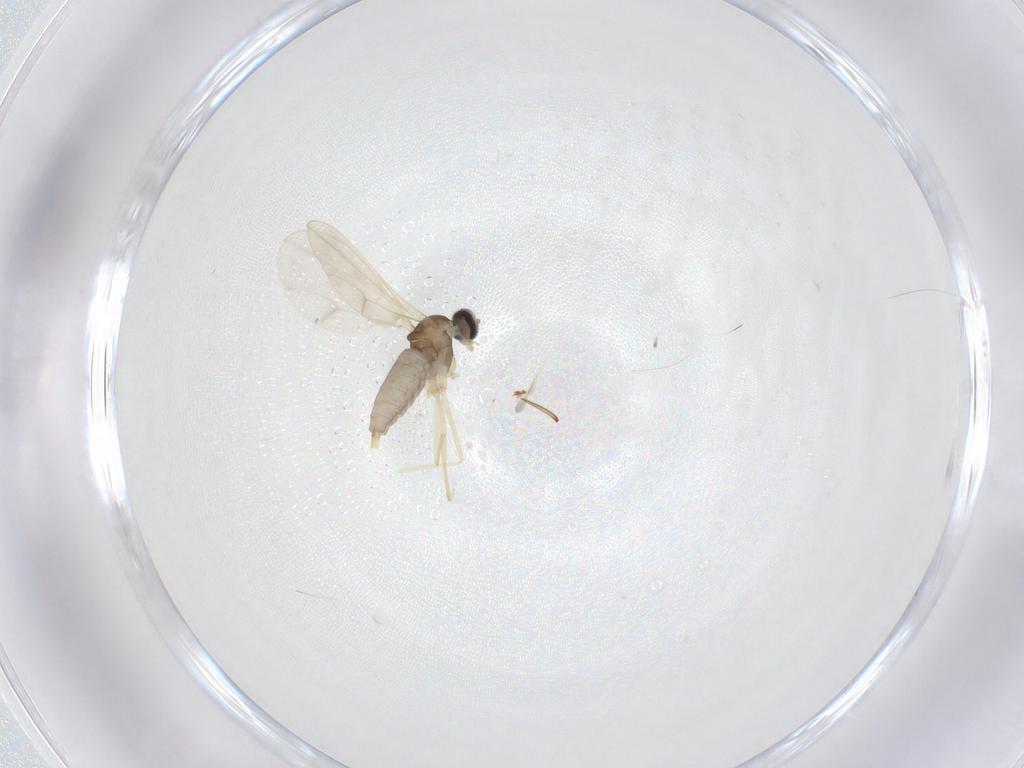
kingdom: Animalia
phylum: Arthropoda
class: Insecta
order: Diptera
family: Cecidomyiidae
